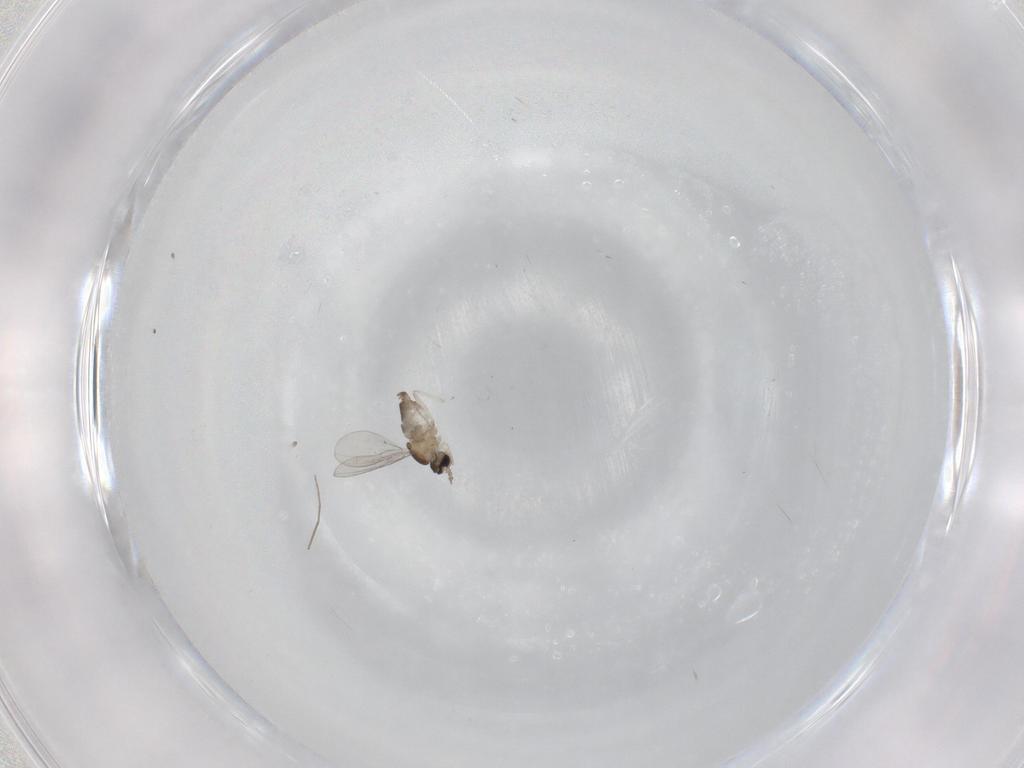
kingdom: Animalia
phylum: Arthropoda
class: Insecta
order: Diptera
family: Cecidomyiidae
